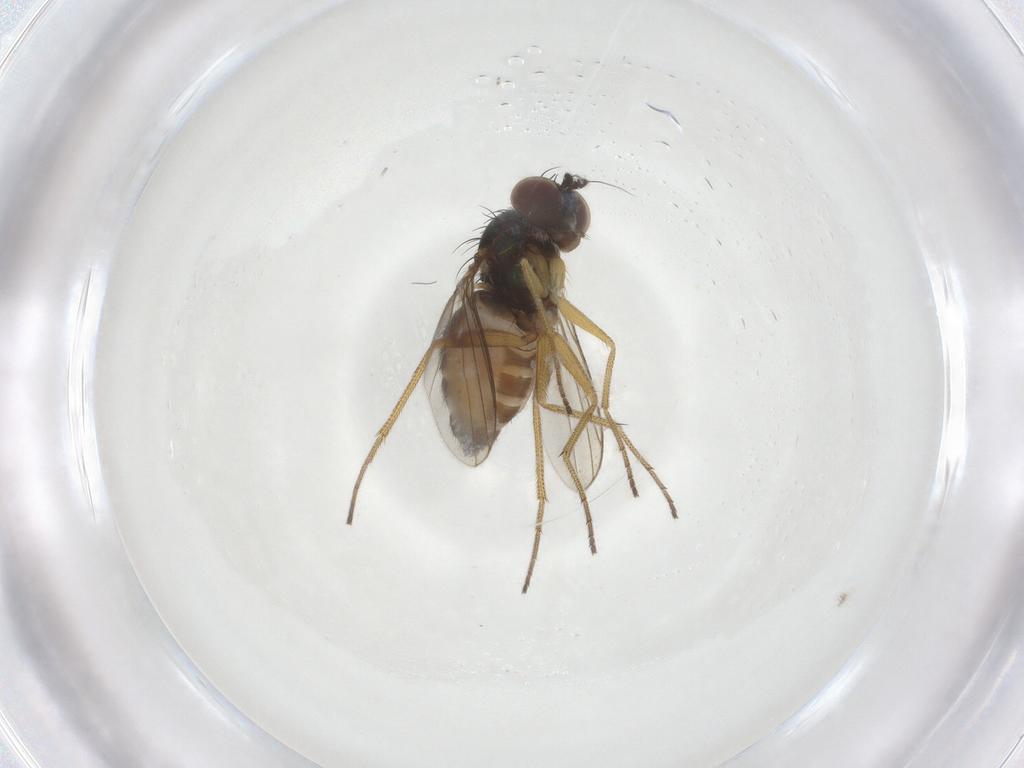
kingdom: Animalia
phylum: Arthropoda
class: Insecta
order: Diptera
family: Dolichopodidae
